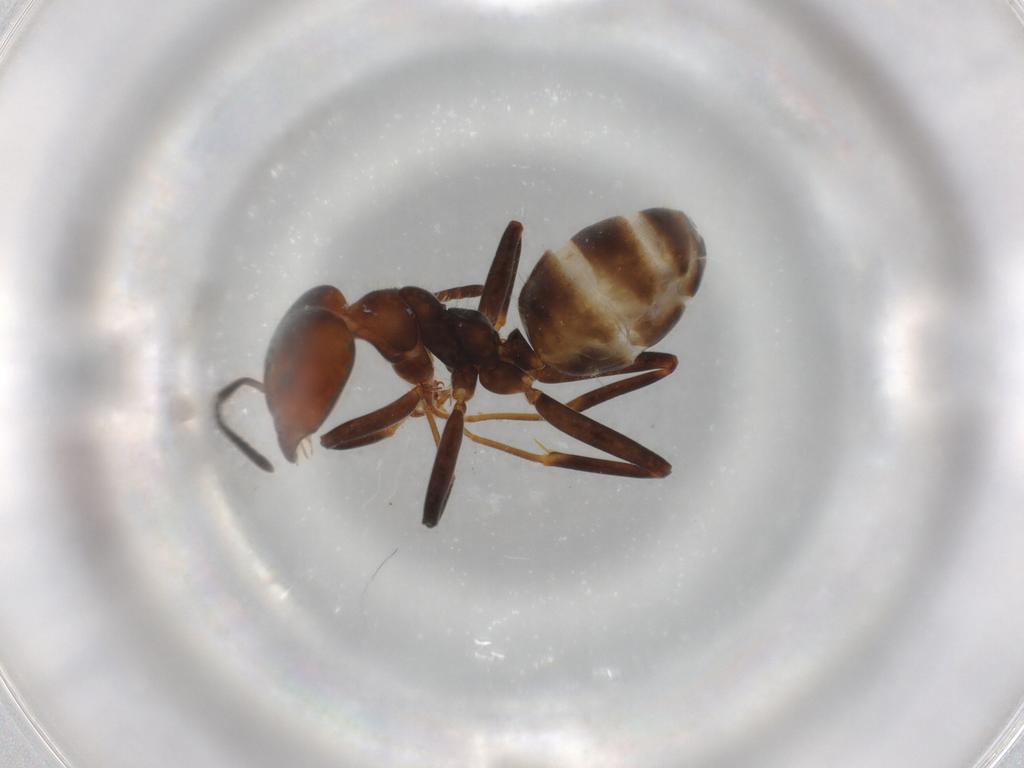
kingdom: Animalia
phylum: Arthropoda
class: Insecta
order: Hymenoptera
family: Formicidae
